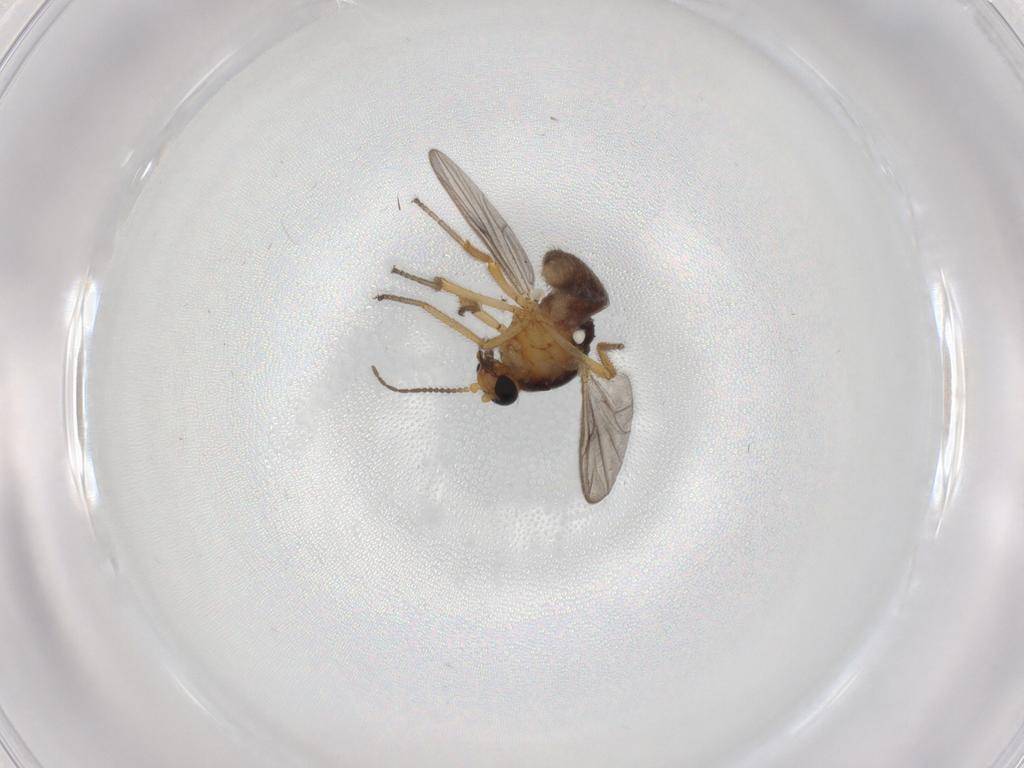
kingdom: Animalia
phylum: Arthropoda
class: Insecta
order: Diptera
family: Ceratopogonidae
